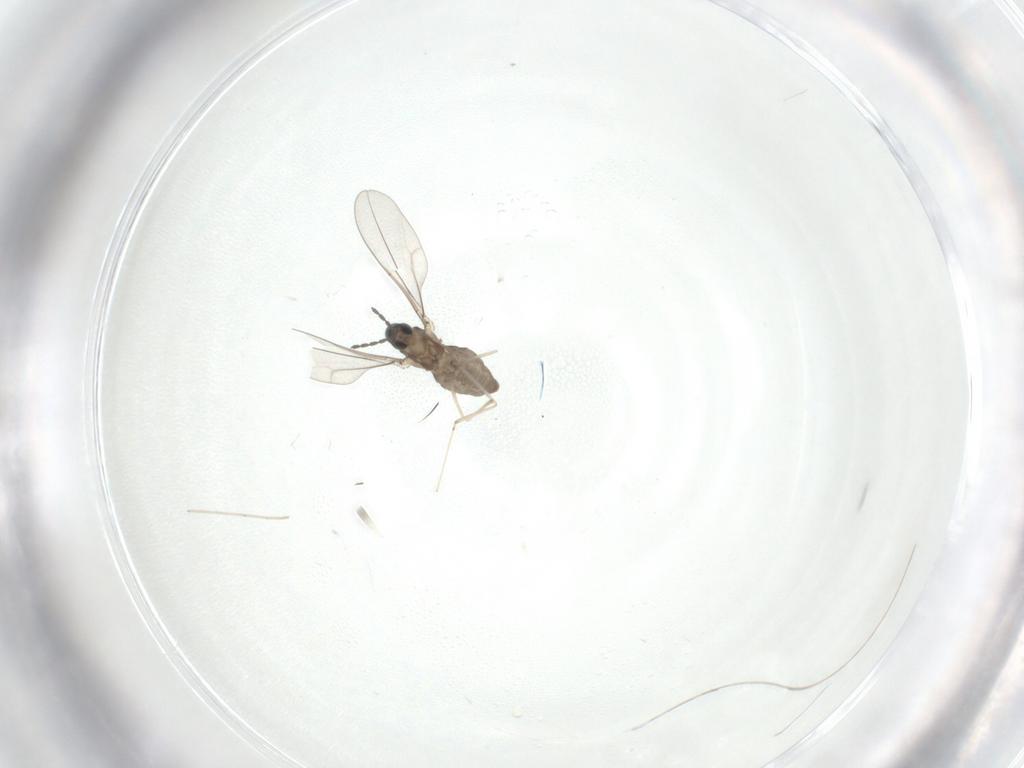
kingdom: Animalia
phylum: Arthropoda
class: Insecta
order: Diptera
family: Cecidomyiidae
